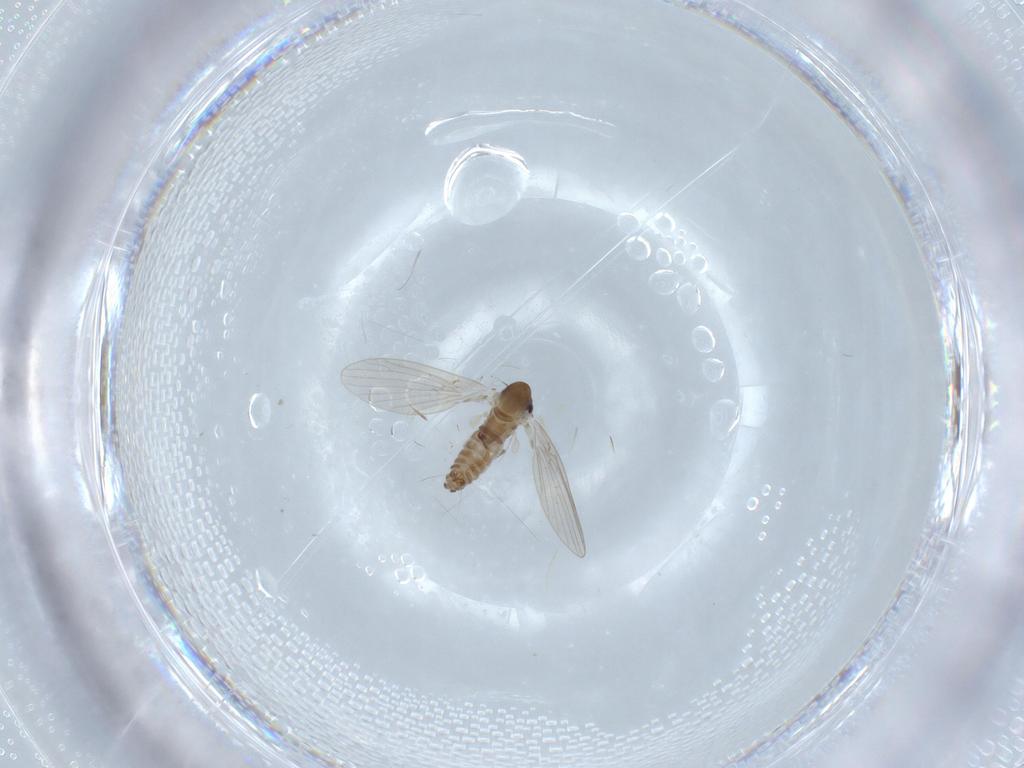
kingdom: Animalia
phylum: Arthropoda
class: Insecta
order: Diptera
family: Psychodidae
